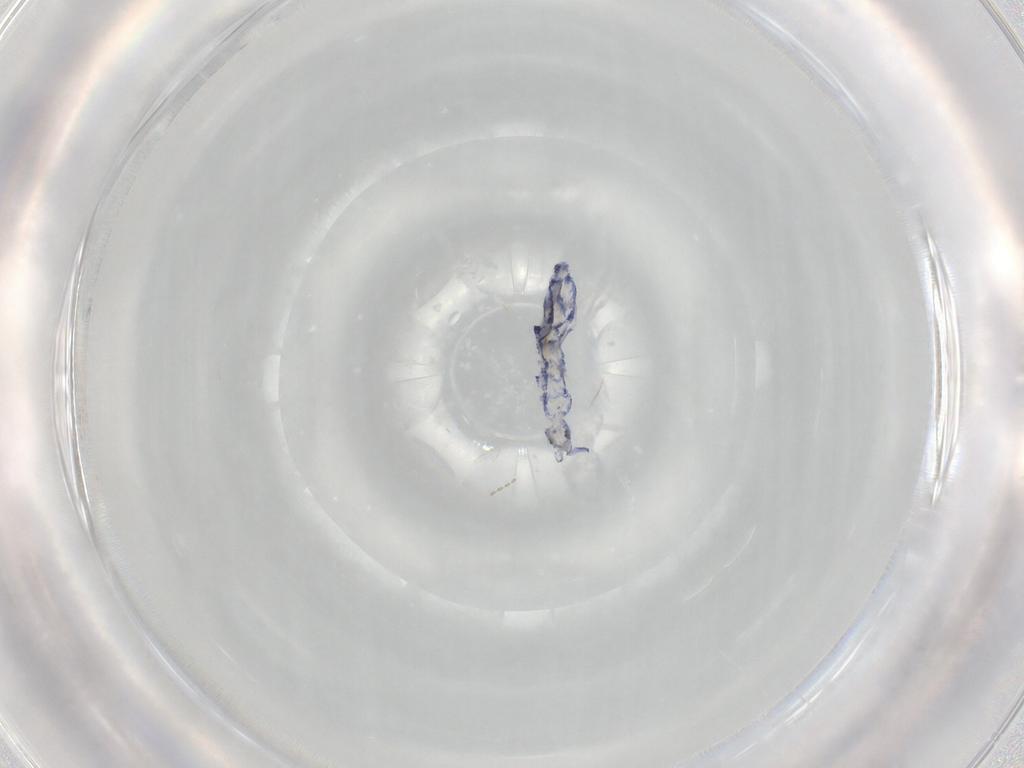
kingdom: Animalia
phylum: Arthropoda
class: Collembola
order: Entomobryomorpha
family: Entomobryidae
